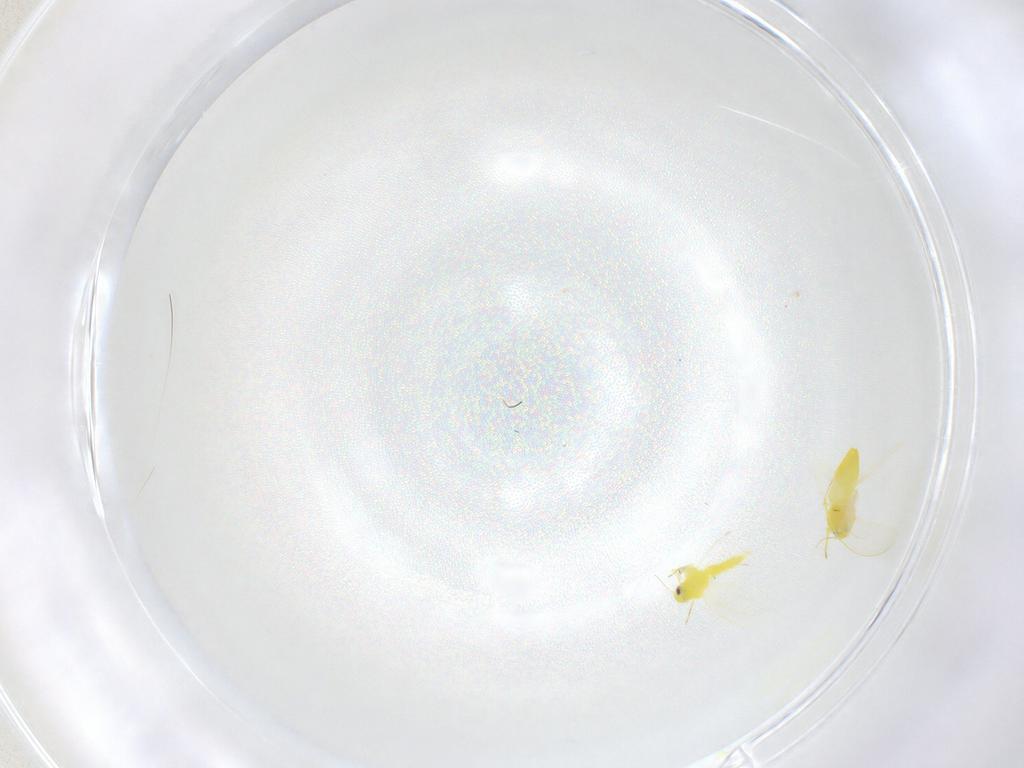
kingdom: Animalia
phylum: Arthropoda
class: Insecta
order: Hemiptera
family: Aleyrodidae
